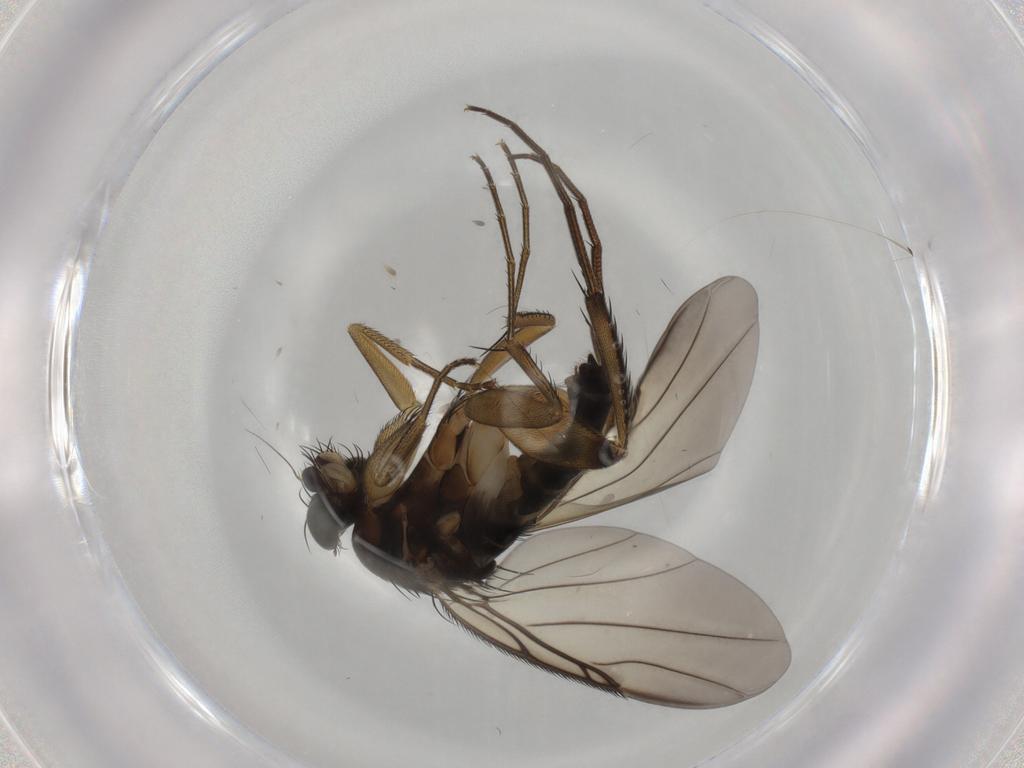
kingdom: Animalia
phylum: Arthropoda
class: Insecta
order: Diptera
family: Phoridae
